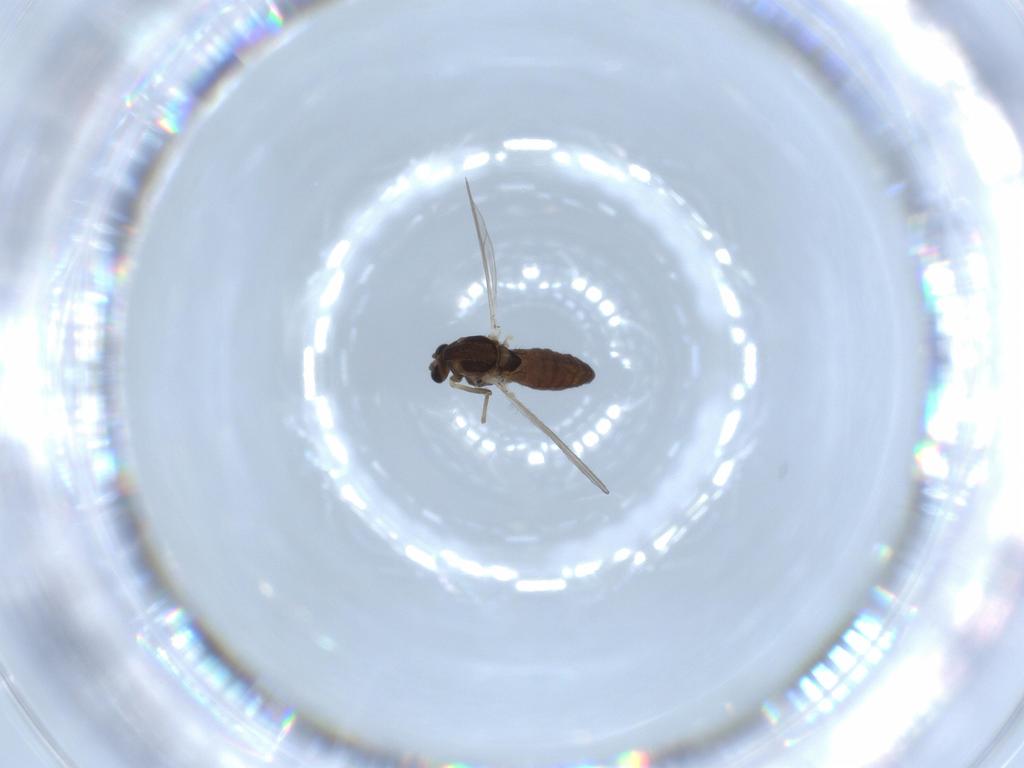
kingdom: Animalia
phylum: Arthropoda
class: Insecta
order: Diptera
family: Chironomidae
